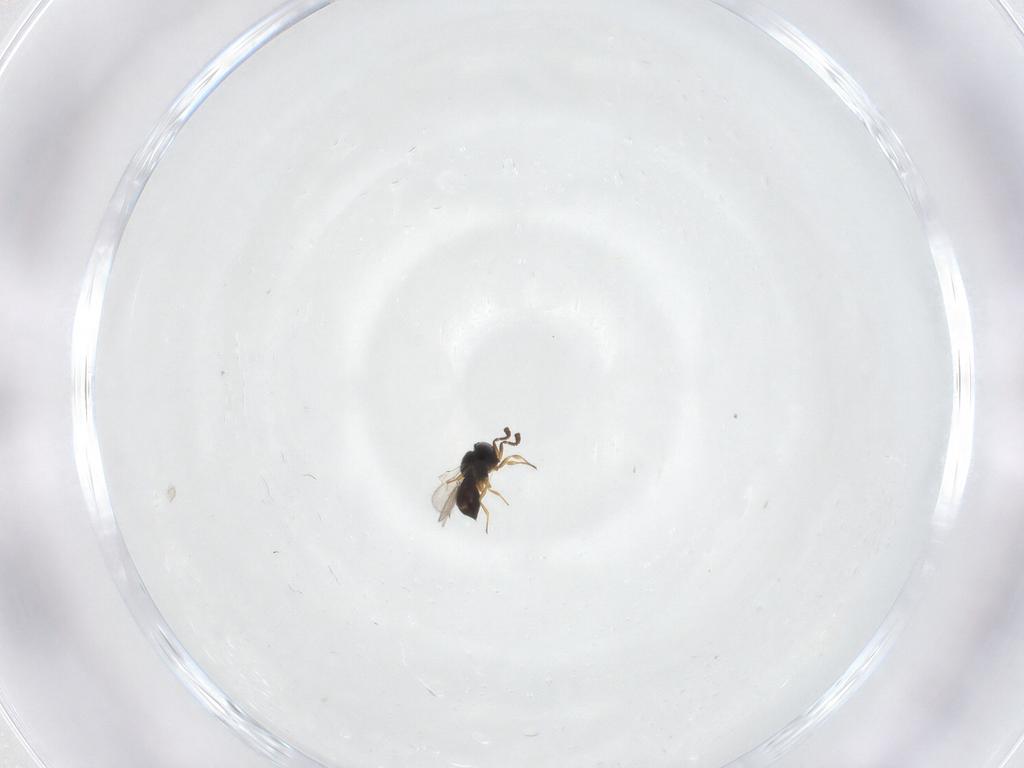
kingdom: Animalia
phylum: Arthropoda
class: Insecta
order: Hymenoptera
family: Scelionidae
